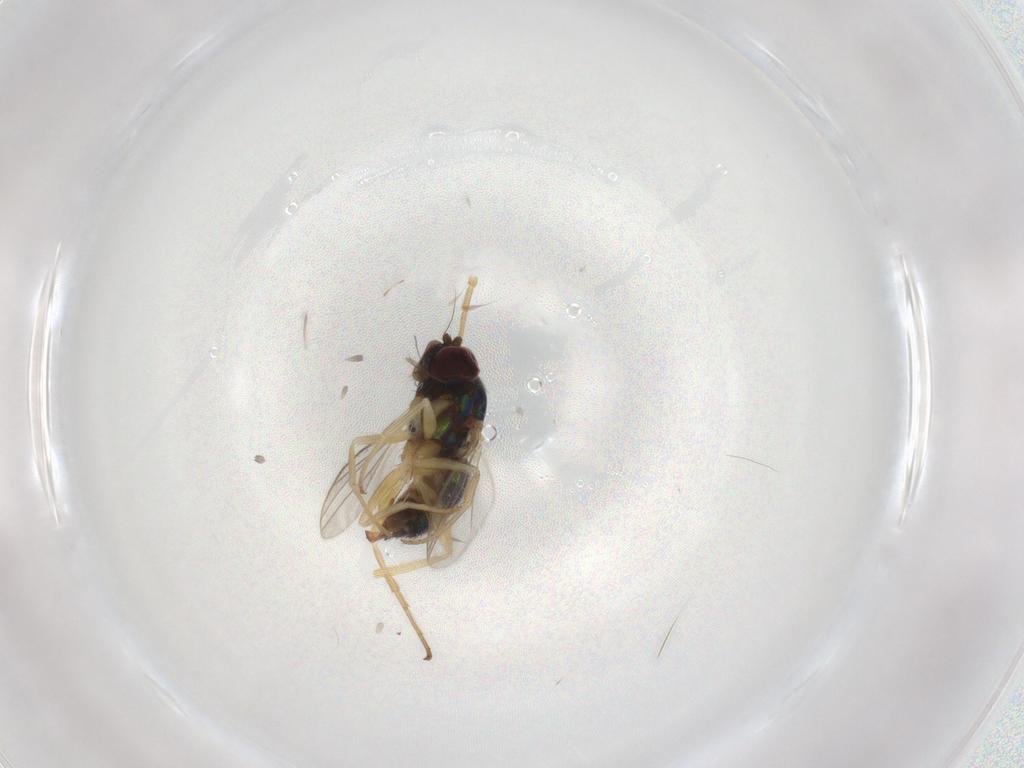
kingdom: Animalia
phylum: Arthropoda
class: Insecta
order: Diptera
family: Dolichopodidae
